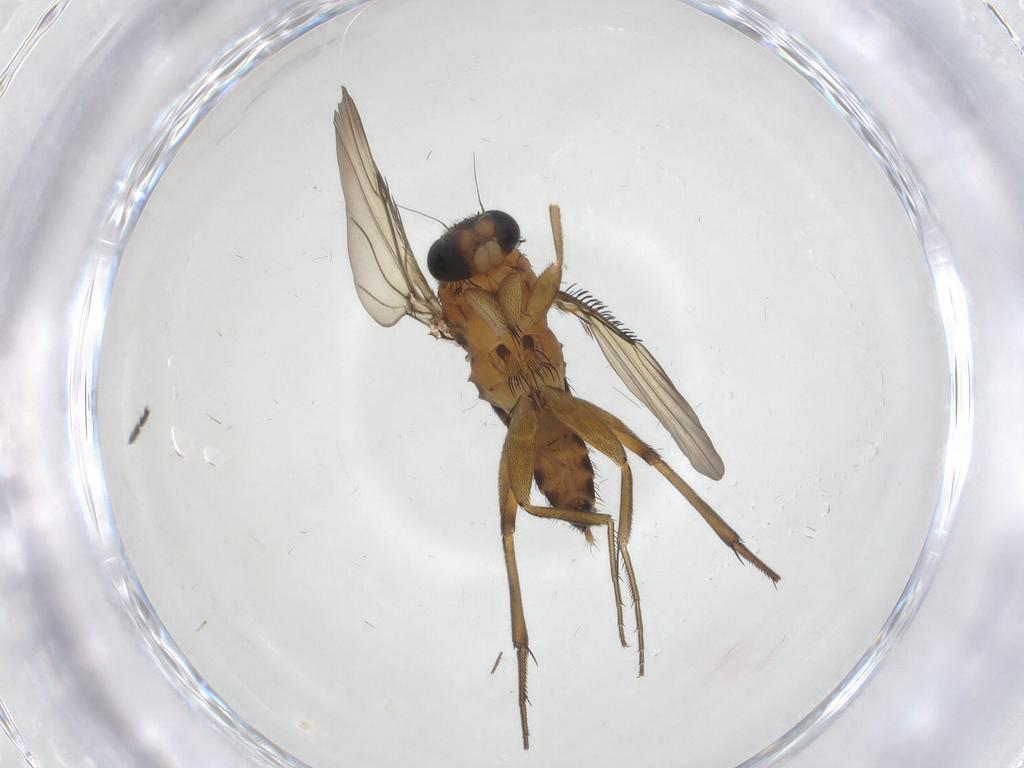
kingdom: Animalia
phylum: Arthropoda
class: Insecta
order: Diptera
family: Phoridae
